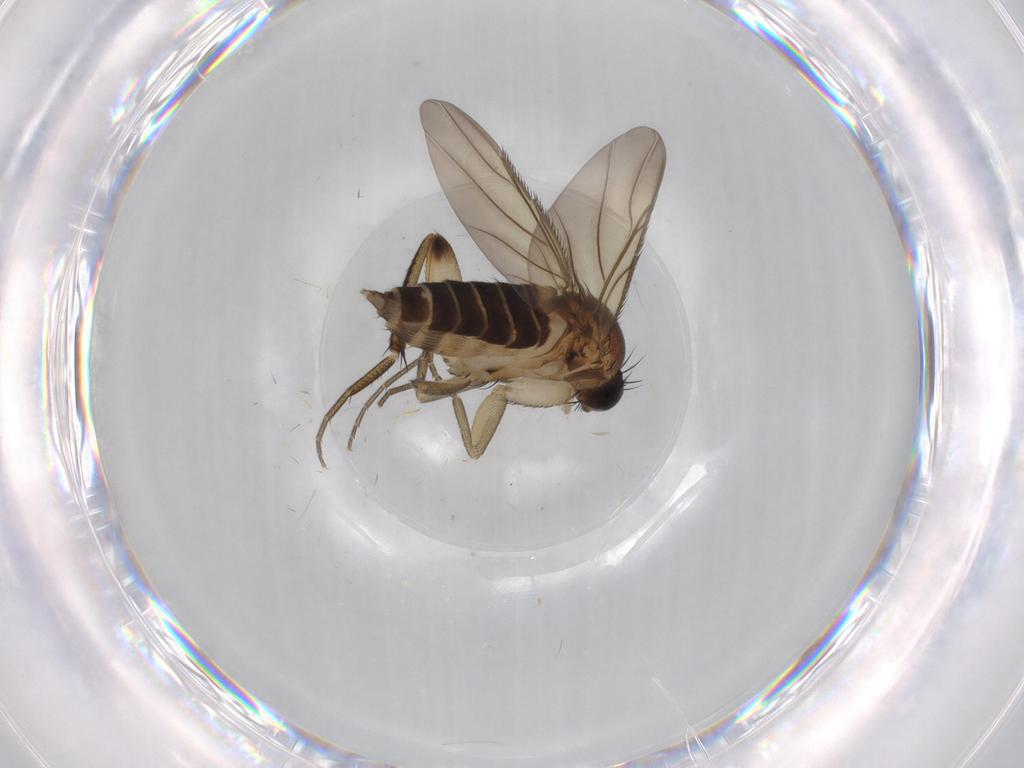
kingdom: Animalia
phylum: Arthropoda
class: Insecta
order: Diptera
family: Phoridae
